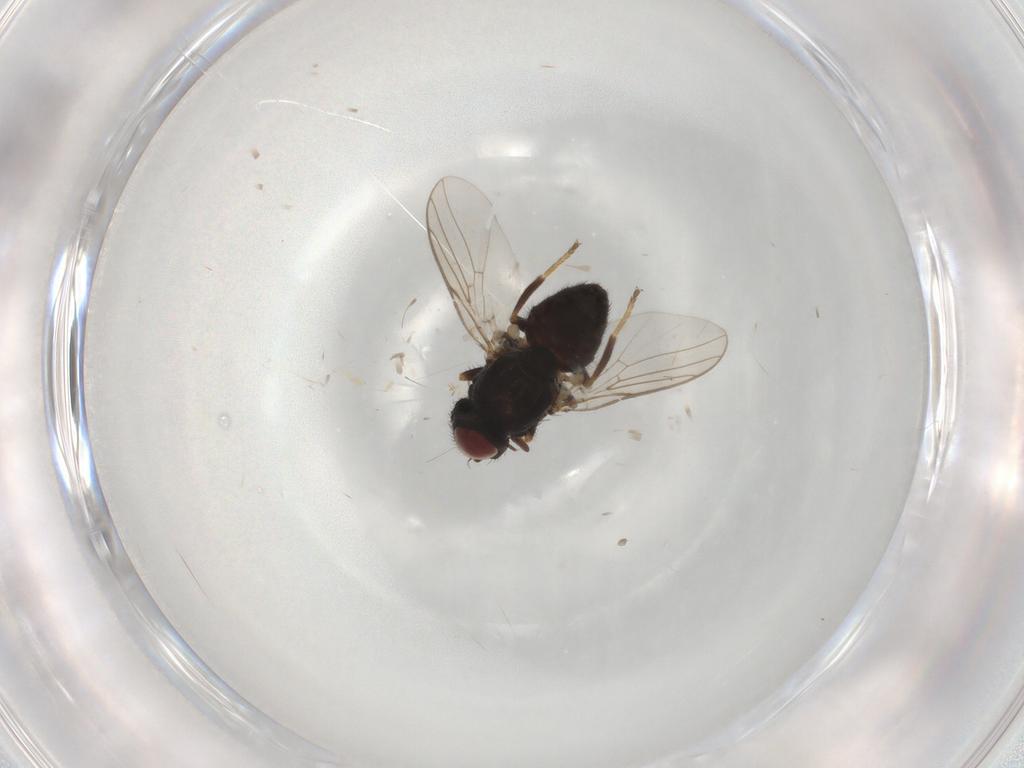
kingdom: Animalia
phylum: Arthropoda
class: Insecta
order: Diptera
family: Chloropidae
